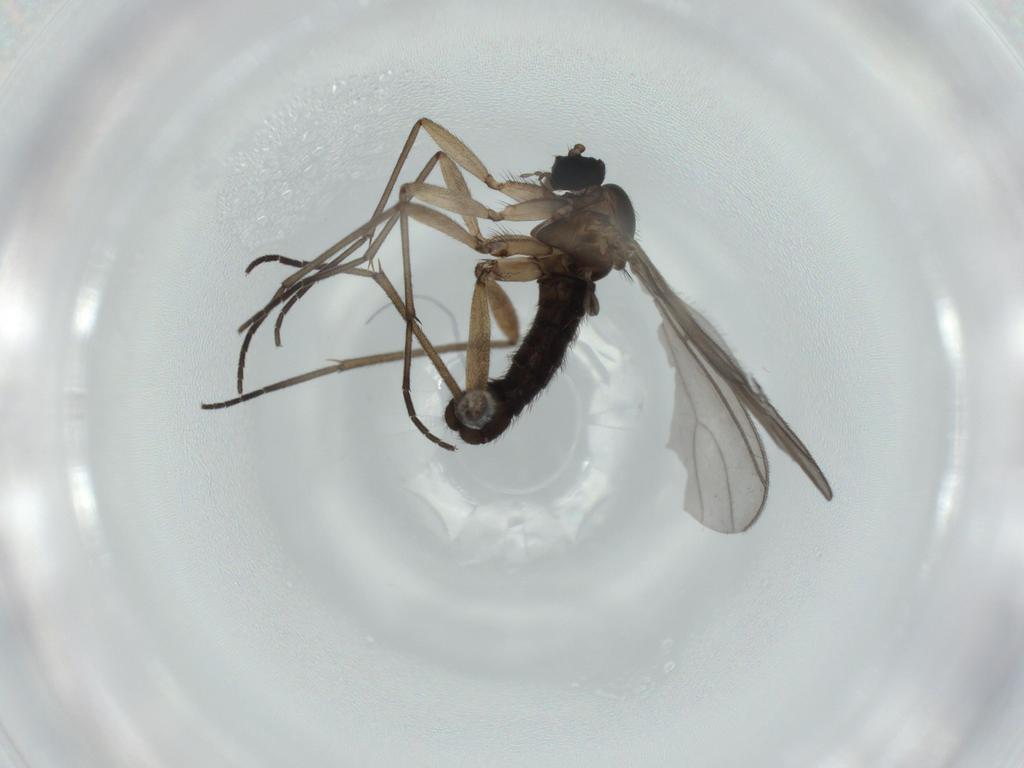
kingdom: Animalia
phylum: Arthropoda
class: Insecta
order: Diptera
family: Sciaridae
